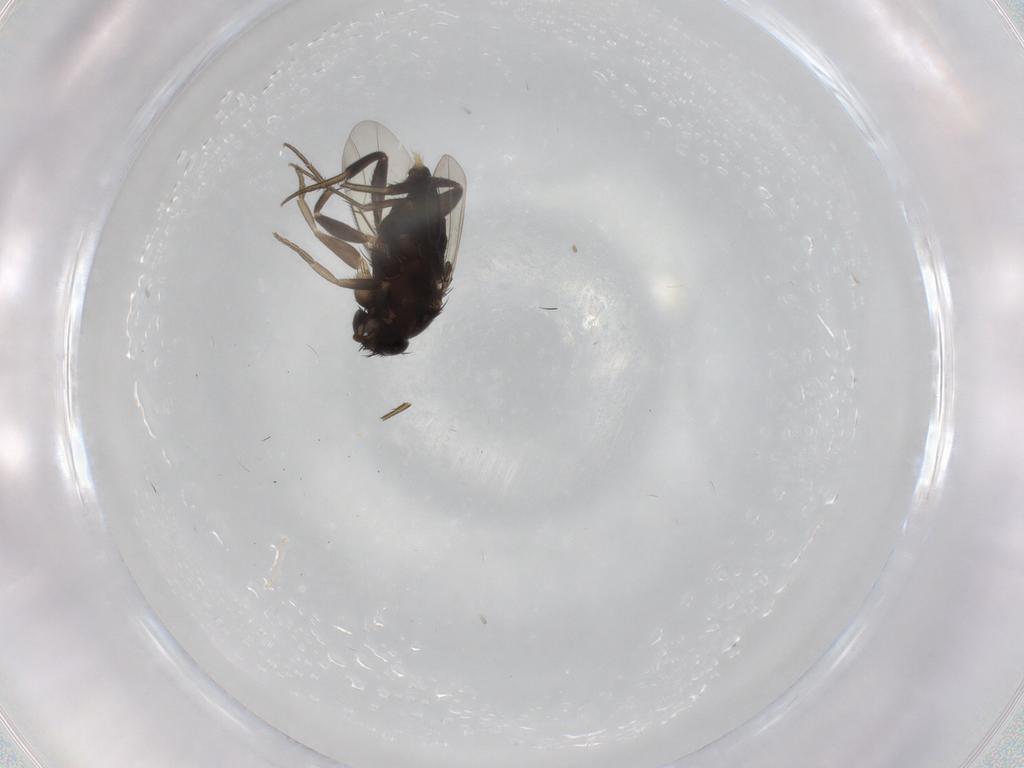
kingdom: Animalia
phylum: Arthropoda
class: Insecta
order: Diptera
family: Phoridae
